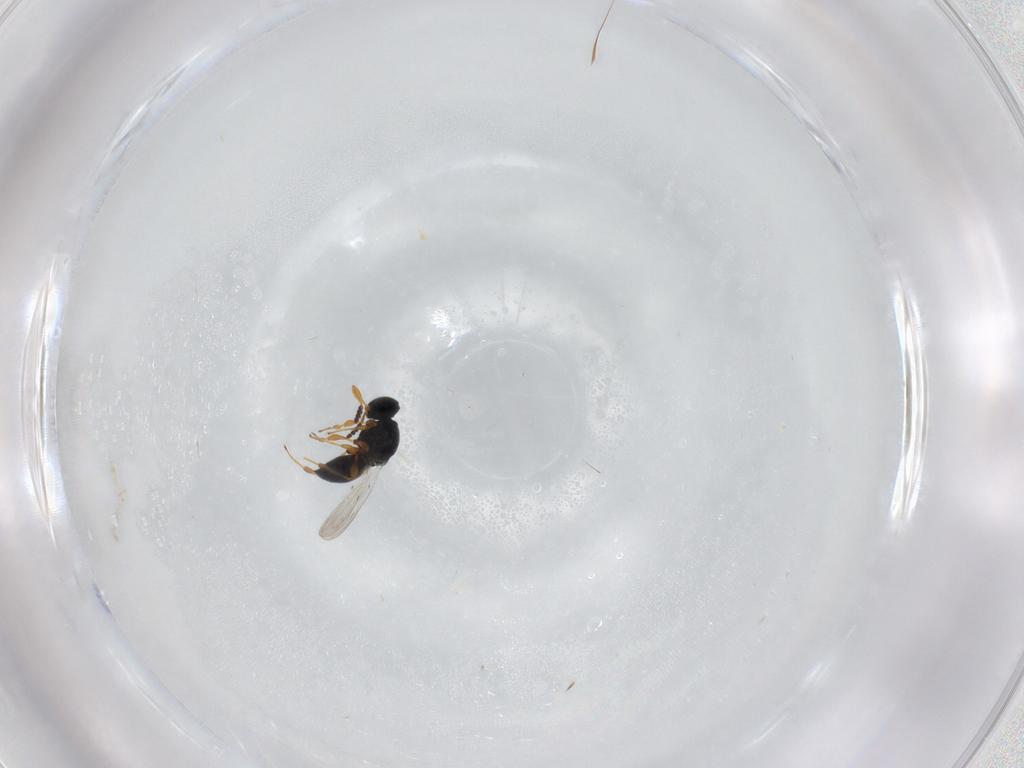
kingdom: Animalia
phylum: Arthropoda
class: Insecta
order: Hymenoptera
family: Platygastridae
